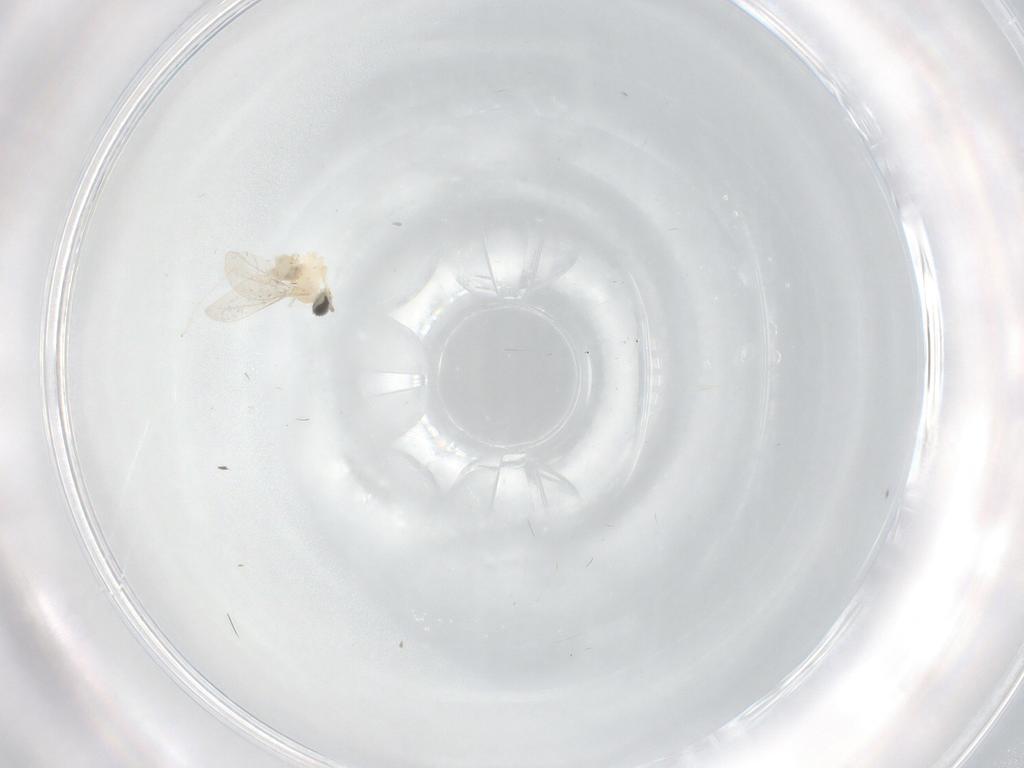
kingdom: Animalia
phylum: Arthropoda
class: Insecta
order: Diptera
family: Cecidomyiidae
